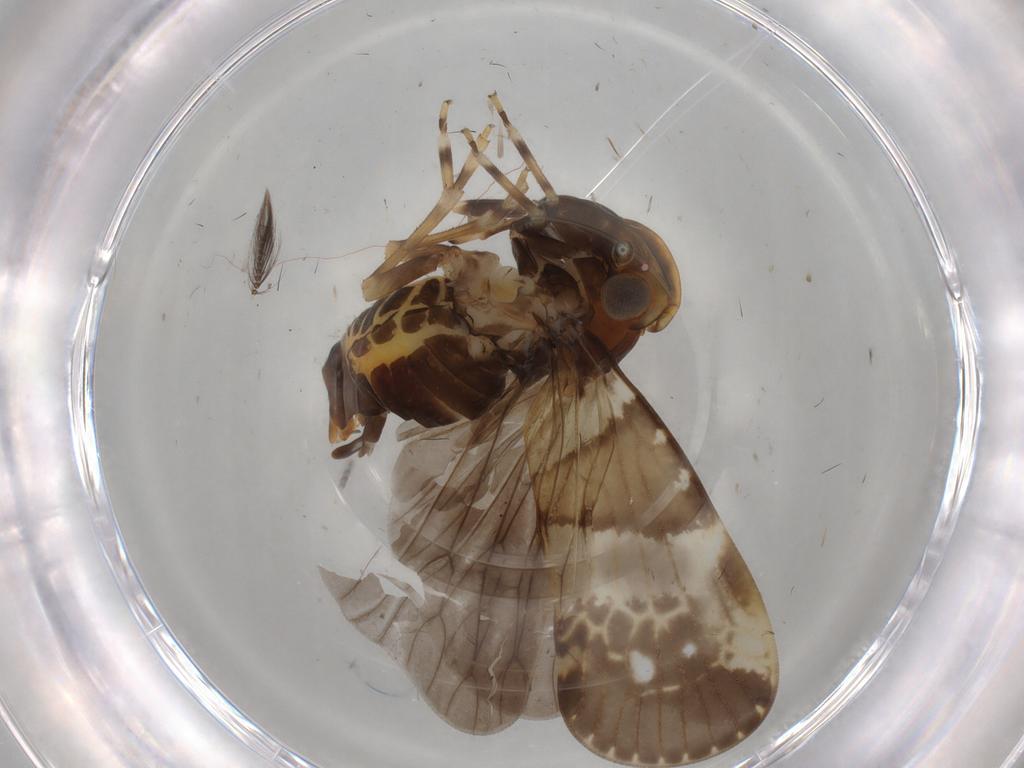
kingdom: Animalia
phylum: Arthropoda
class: Insecta
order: Hemiptera
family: Cixiidae
